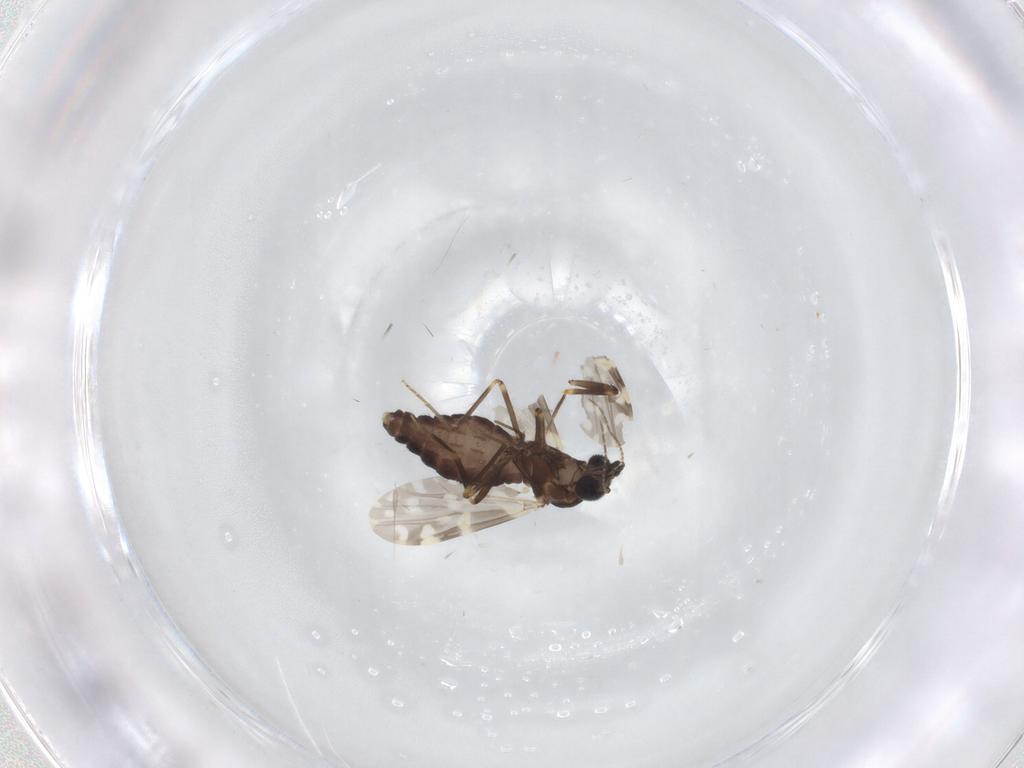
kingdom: Animalia
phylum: Arthropoda
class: Insecta
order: Diptera
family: Ceratopogonidae
